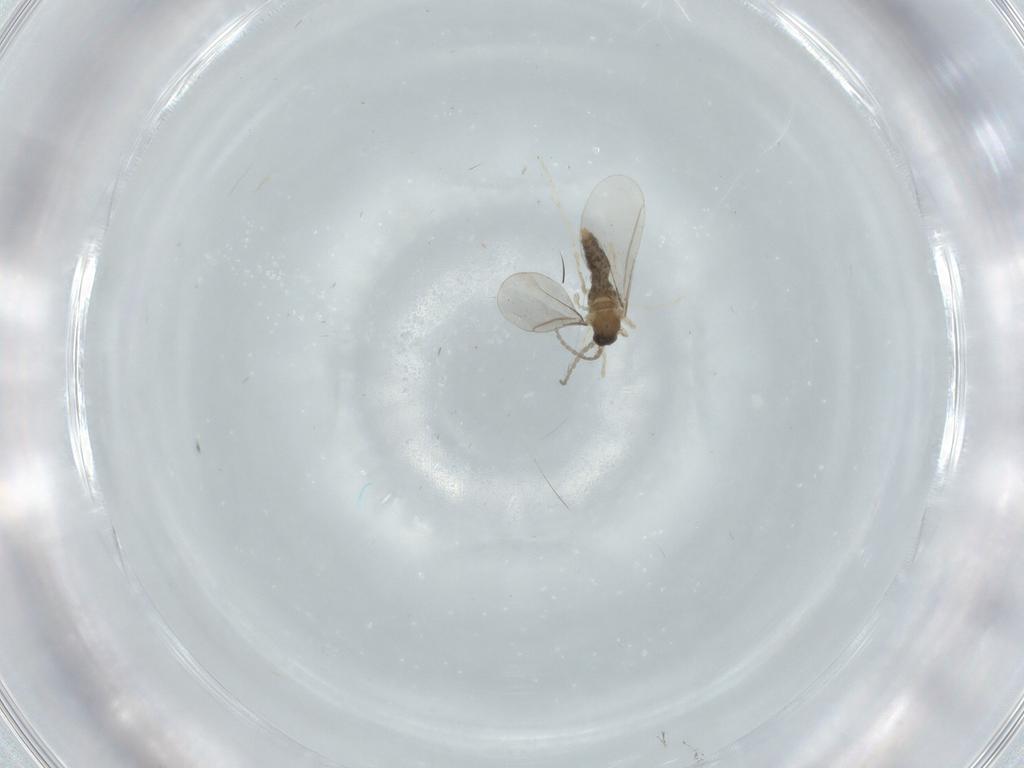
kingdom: Animalia
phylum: Arthropoda
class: Insecta
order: Diptera
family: Cecidomyiidae
